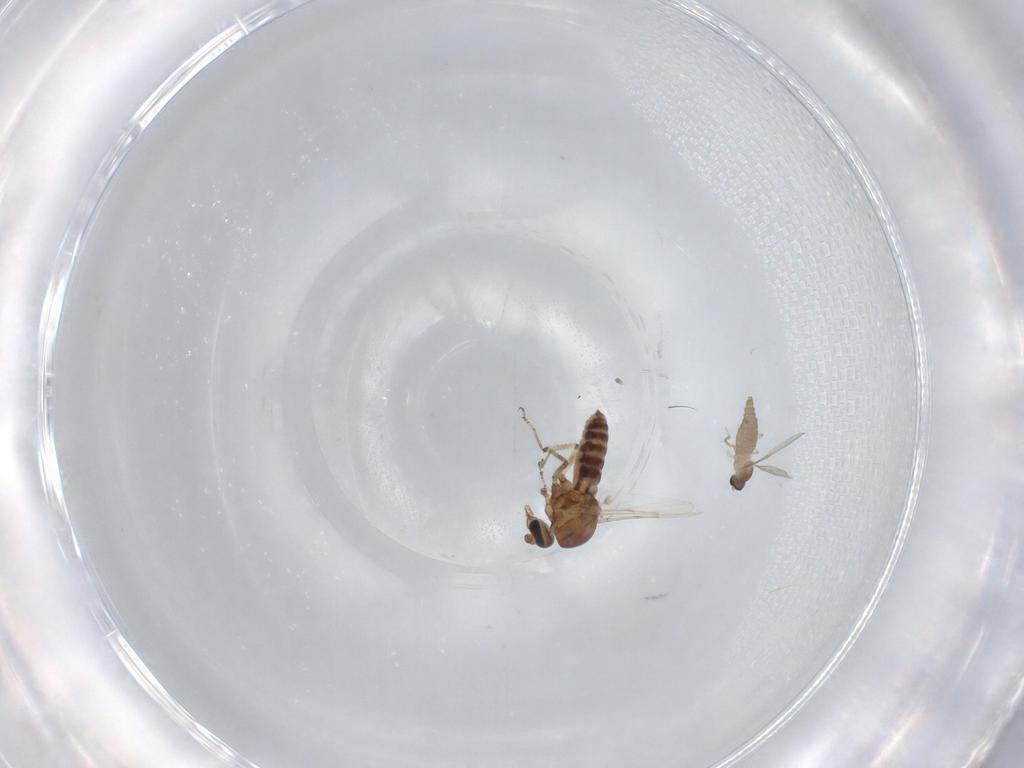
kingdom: Animalia
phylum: Arthropoda
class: Insecta
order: Diptera
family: Ceratopogonidae
